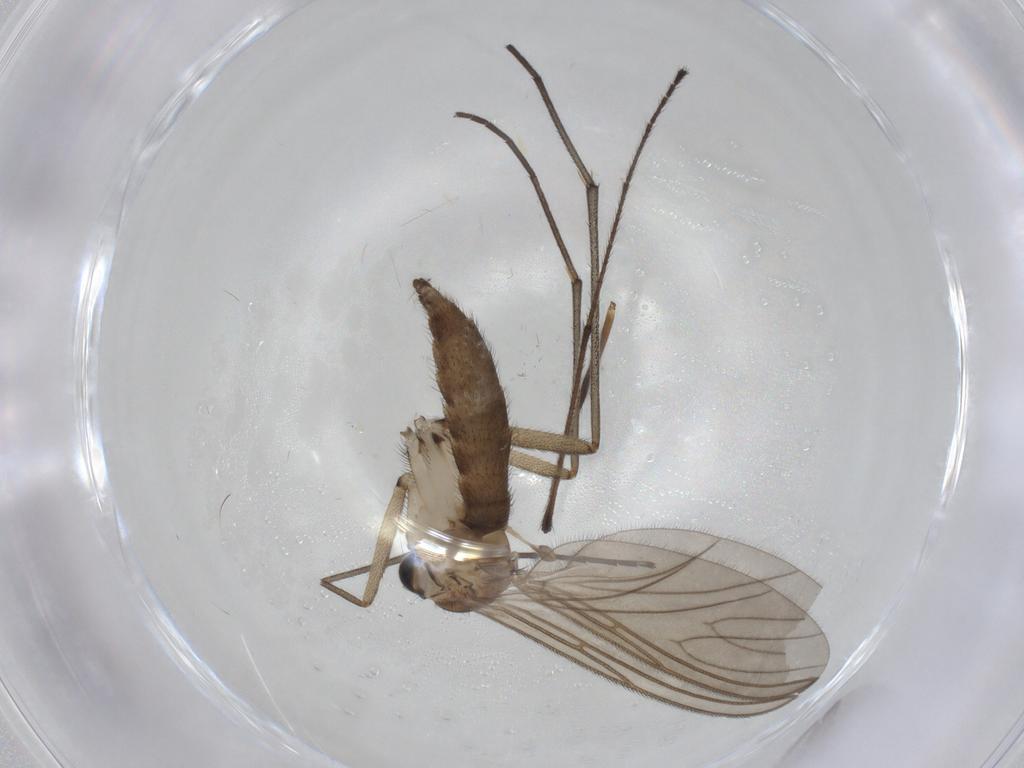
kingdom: Animalia
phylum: Arthropoda
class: Insecta
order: Diptera
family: Sciaridae
